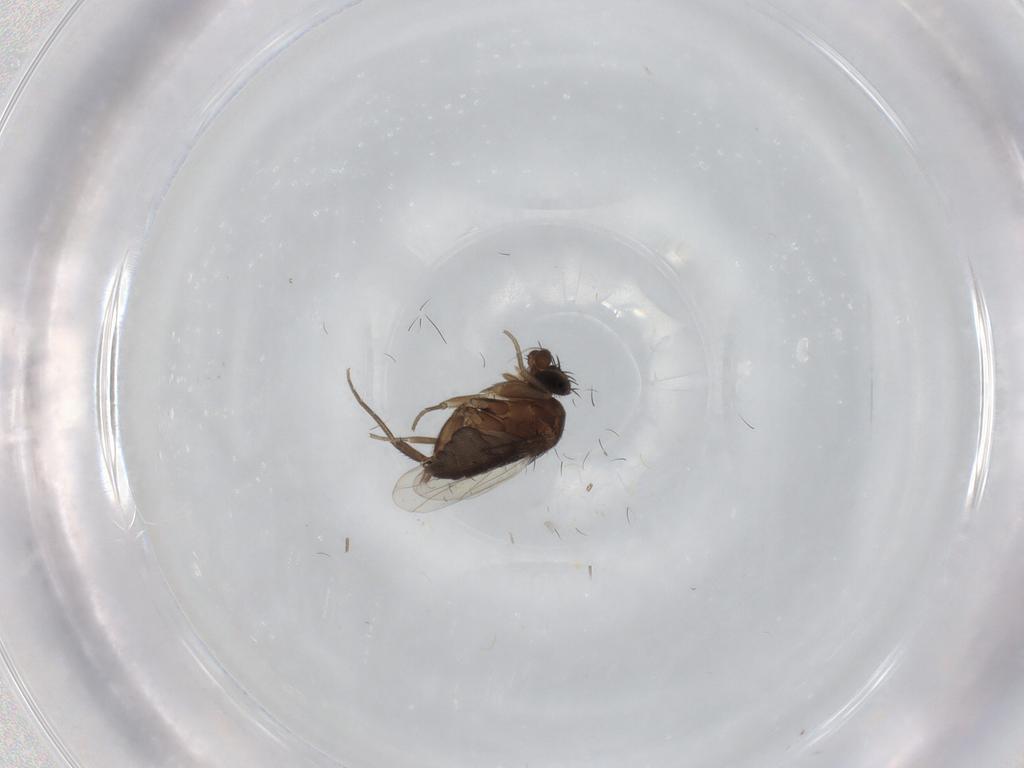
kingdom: Animalia
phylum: Arthropoda
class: Insecta
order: Diptera
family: Phoridae
